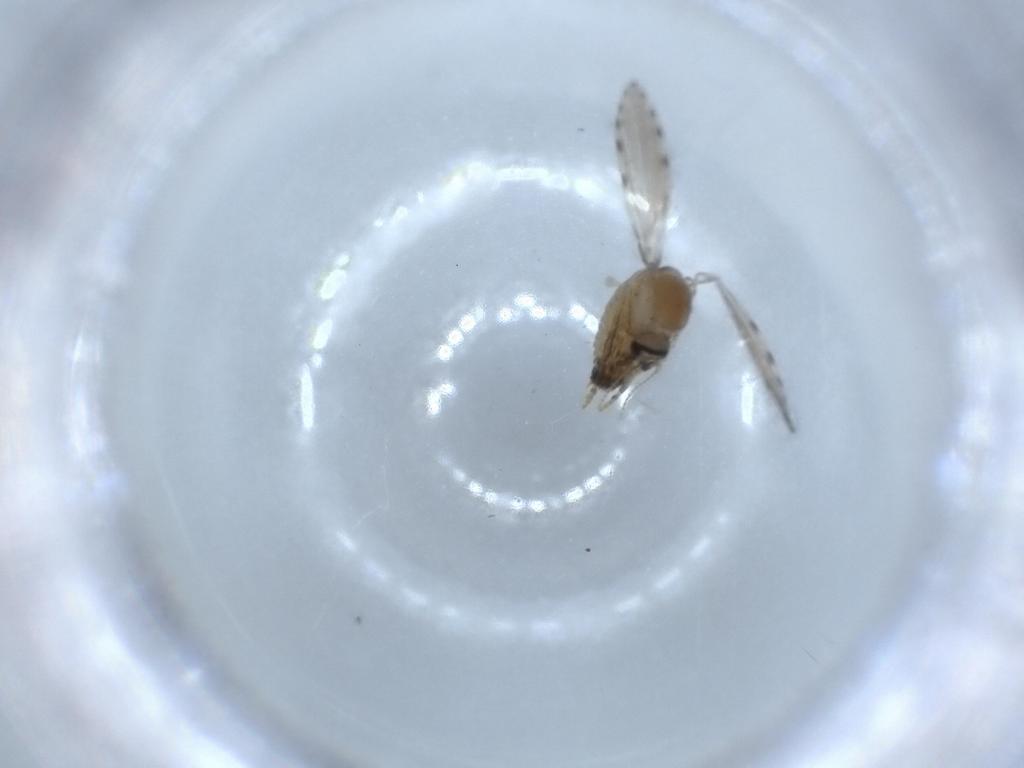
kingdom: Animalia
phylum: Arthropoda
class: Insecta
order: Diptera
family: Psychodidae
